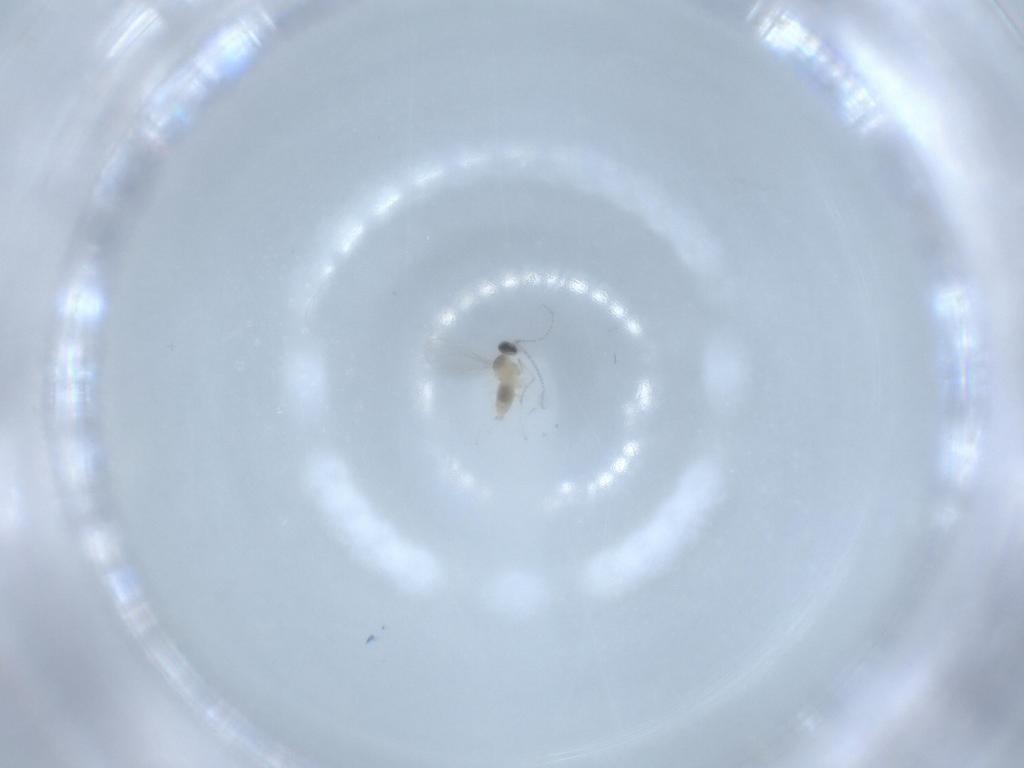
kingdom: Animalia
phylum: Arthropoda
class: Insecta
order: Diptera
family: Cecidomyiidae
